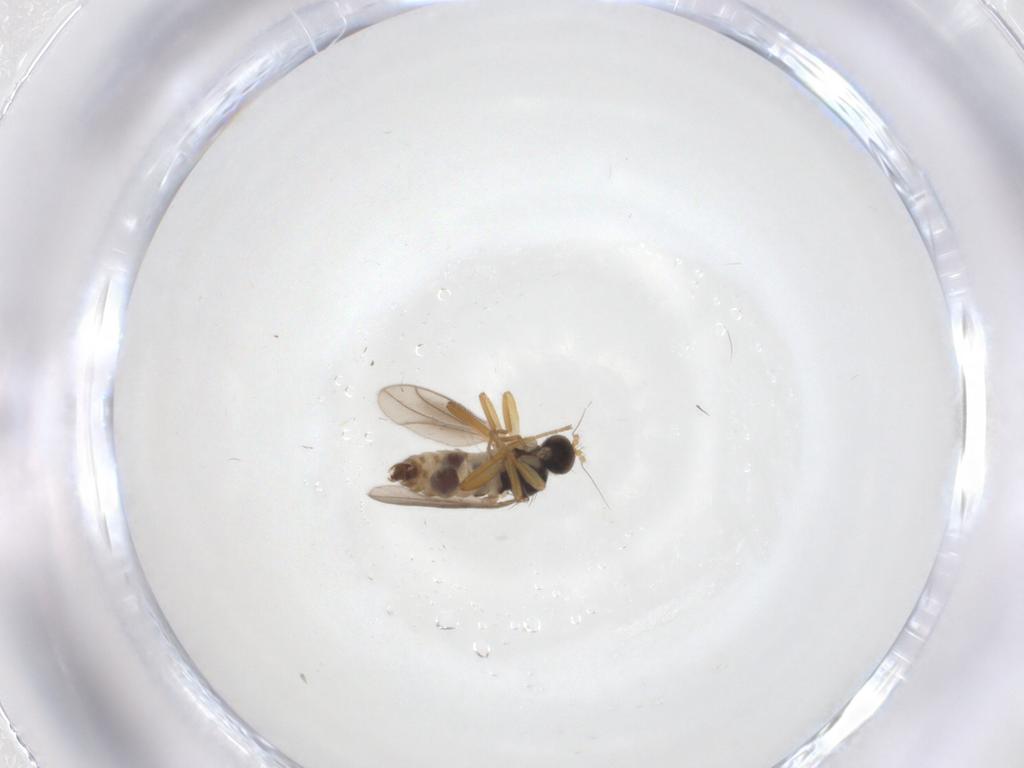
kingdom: Animalia
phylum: Arthropoda
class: Insecta
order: Diptera
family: Hybotidae
